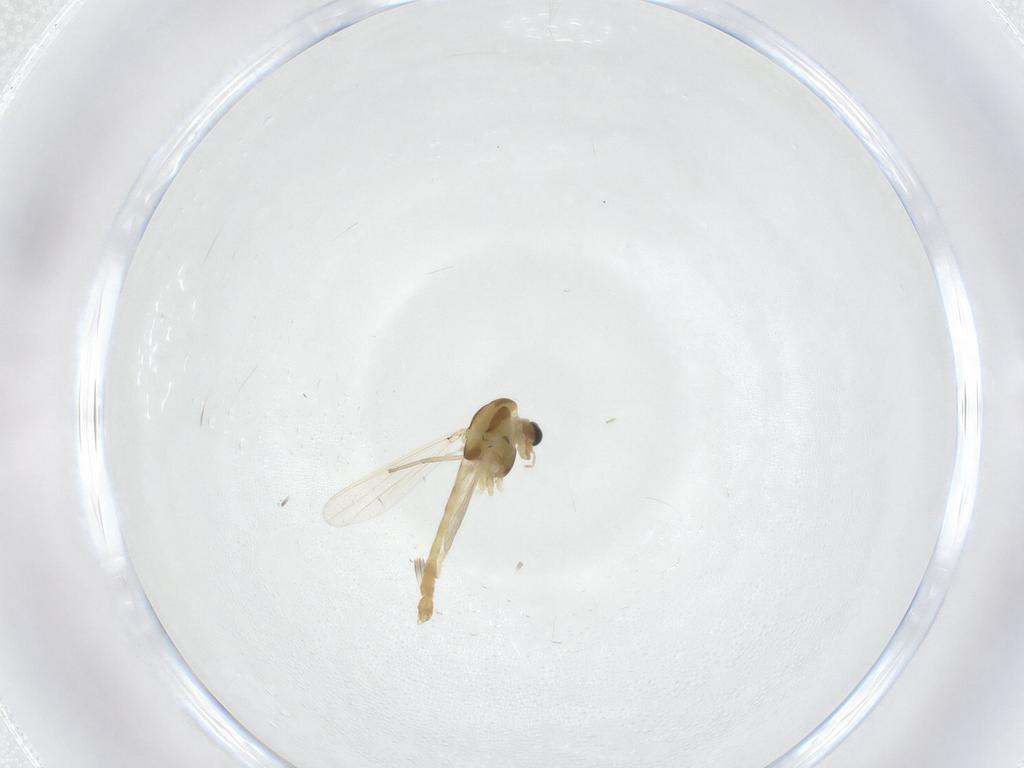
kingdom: Animalia
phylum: Arthropoda
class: Insecta
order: Diptera
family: Chironomidae
